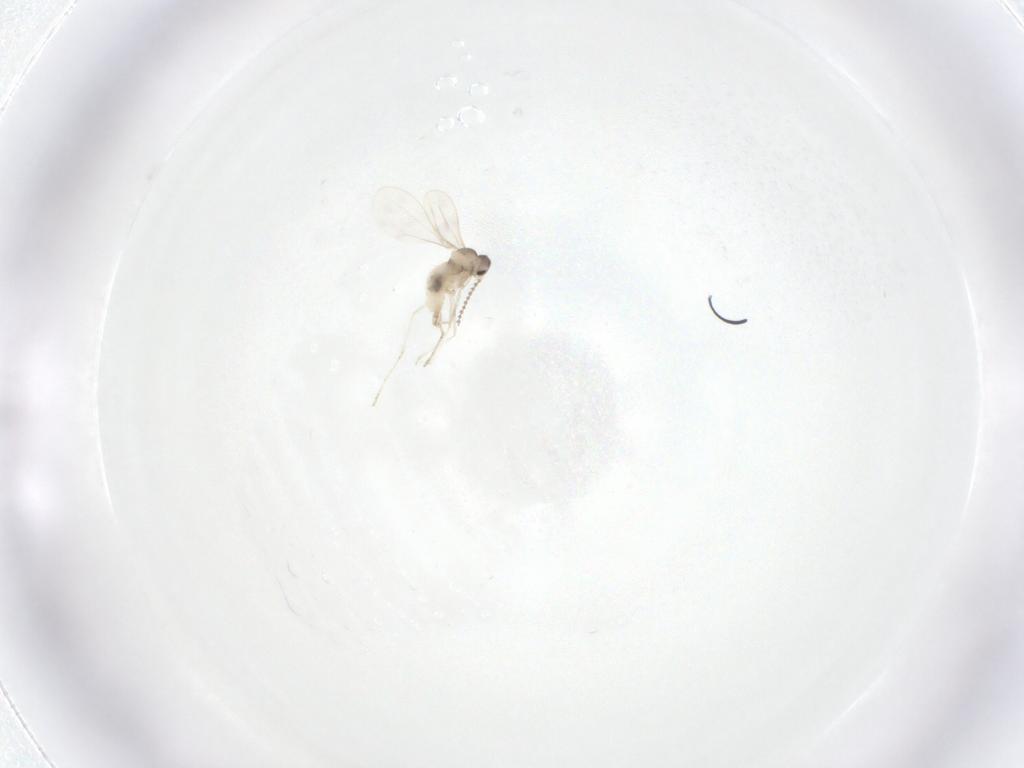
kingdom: Animalia
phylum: Arthropoda
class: Insecta
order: Diptera
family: Cecidomyiidae
